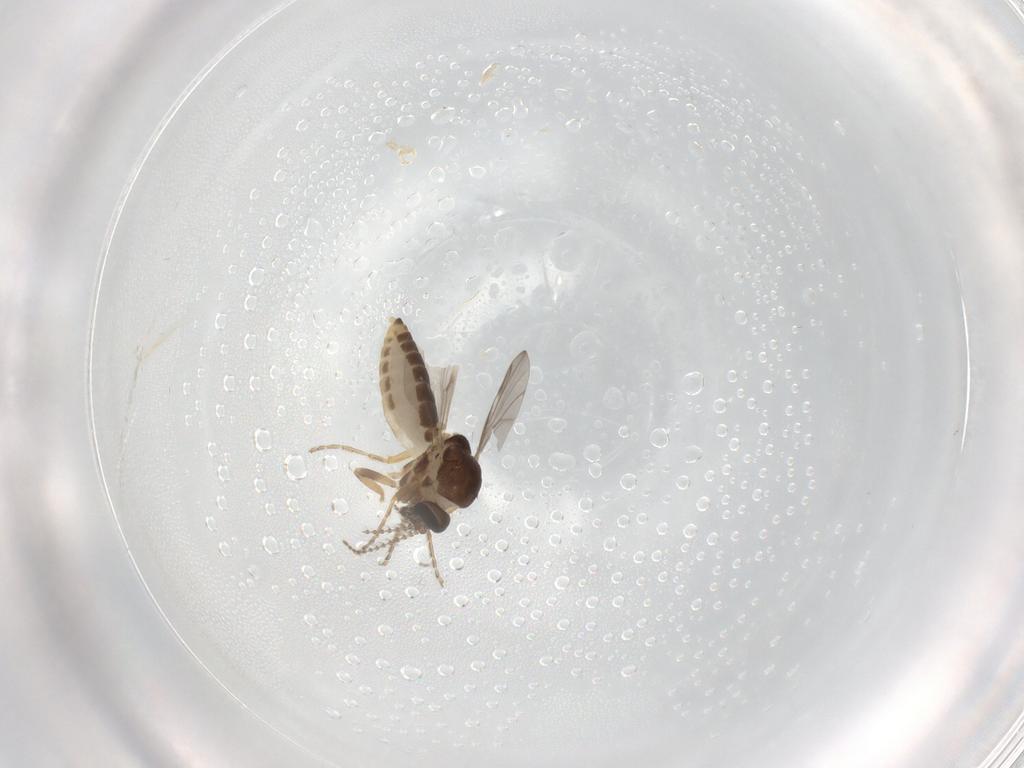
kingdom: Animalia
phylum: Arthropoda
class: Insecta
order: Diptera
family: Ceratopogonidae
